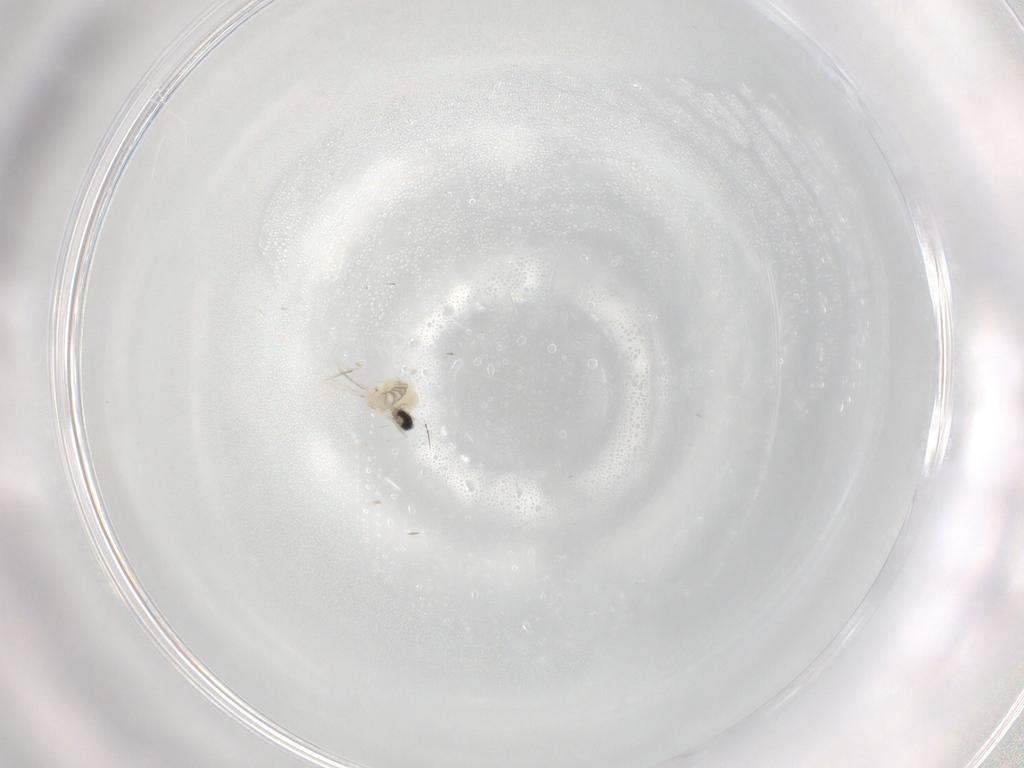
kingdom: Animalia
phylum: Arthropoda
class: Insecta
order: Diptera
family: Cecidomyiidae
